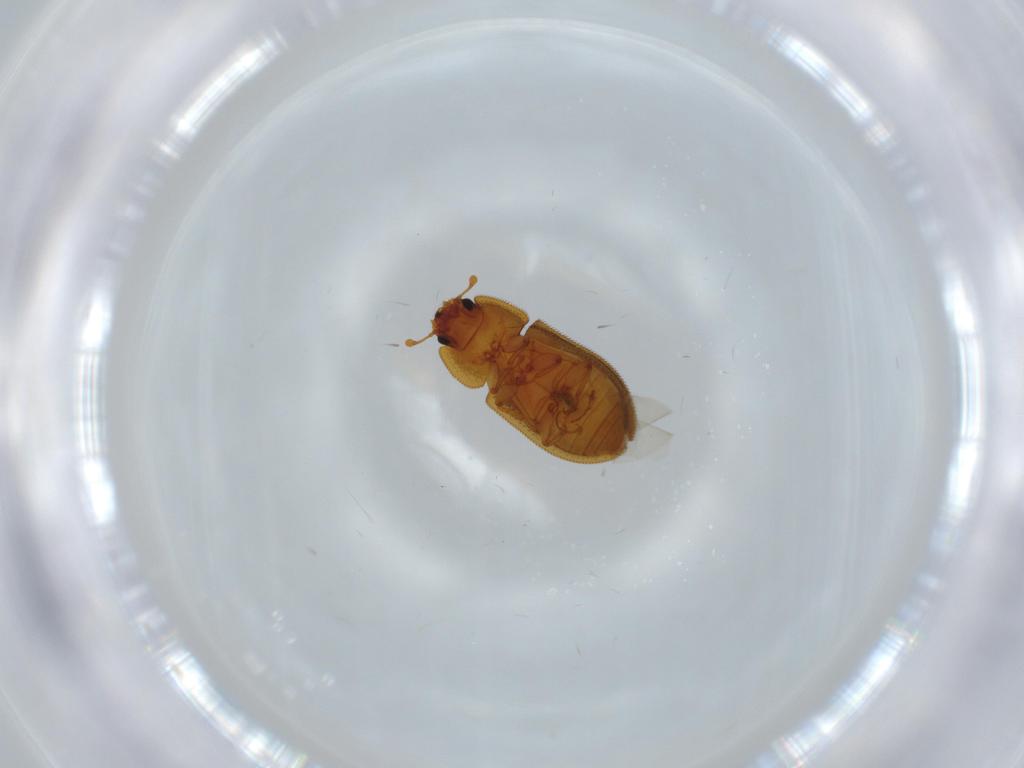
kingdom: Animalia
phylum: Arthropoda
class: Insecta
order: Coleoptera
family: Zopheridae
